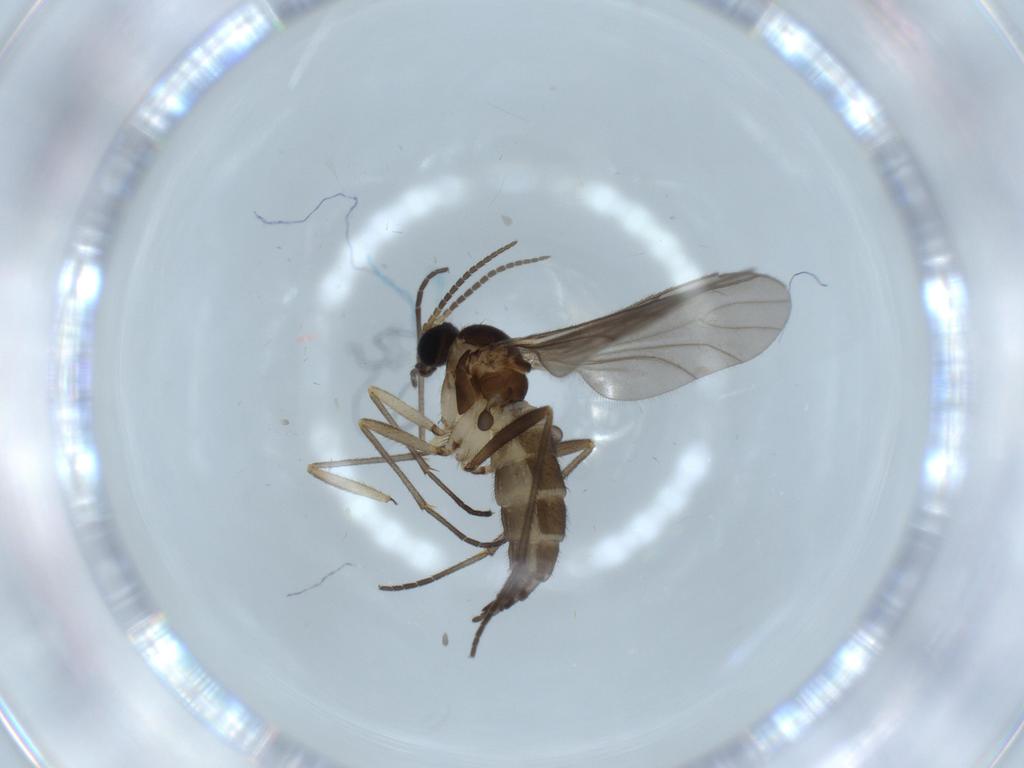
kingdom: Animalia
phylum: Arthropoda
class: Insecta
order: Diptera
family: Sciaridae
